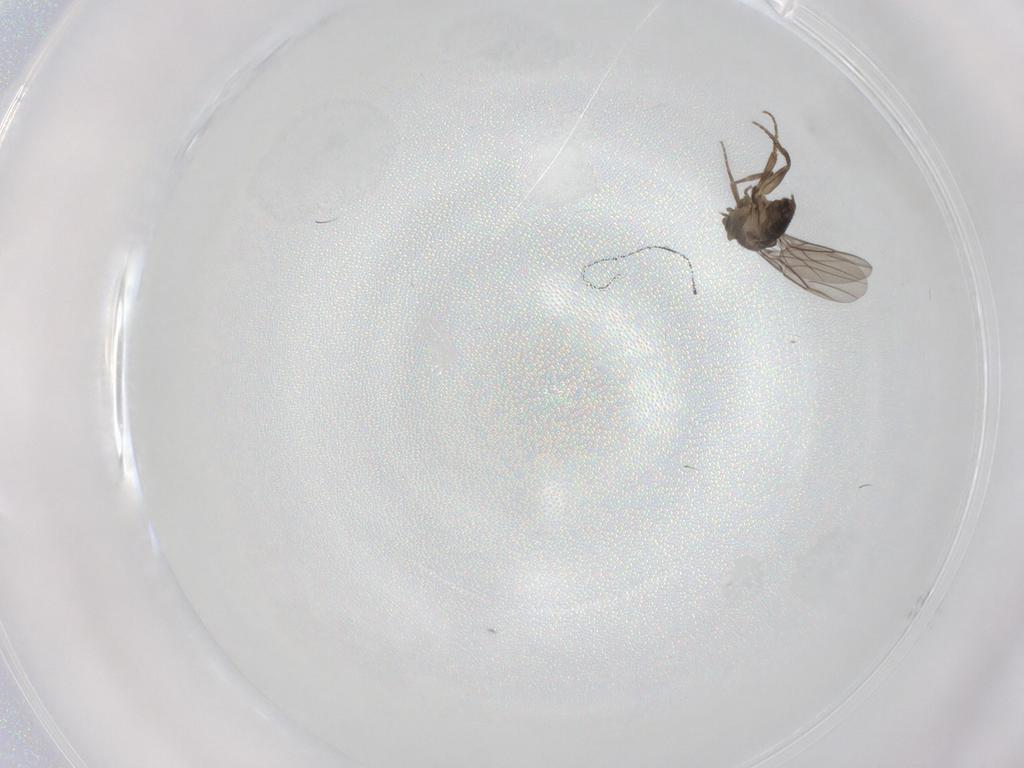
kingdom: Animalia
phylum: Arthropoda
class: Insecta
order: Diptera
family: Phoridae
